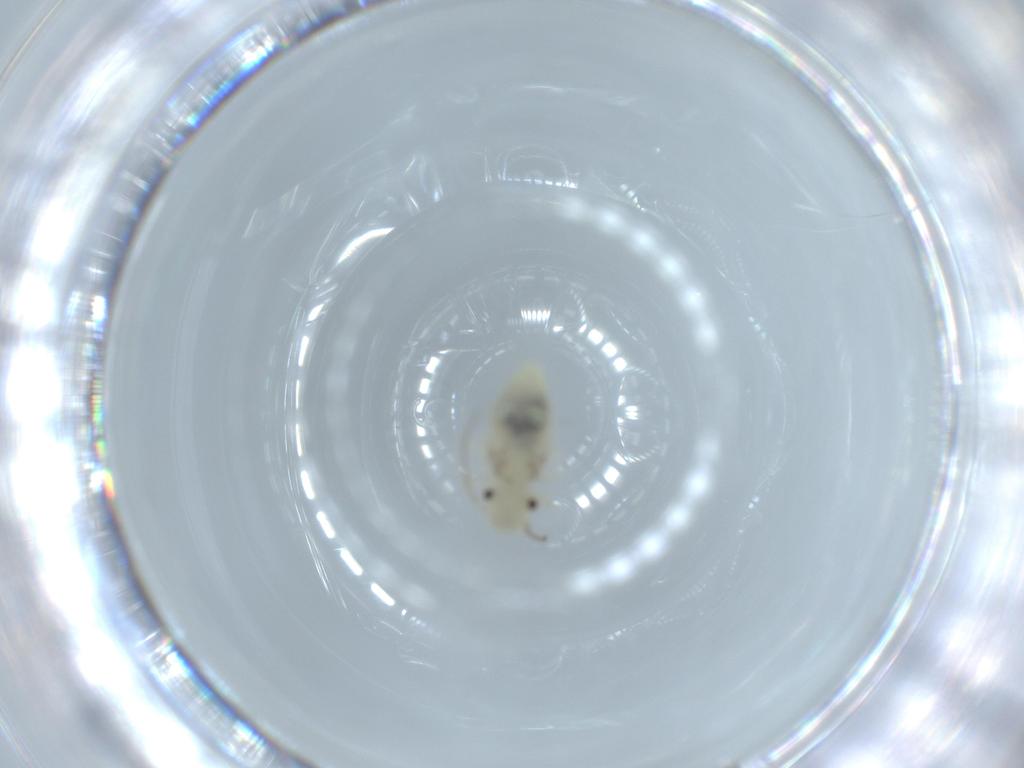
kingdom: Animalia
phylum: Arthropoda
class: Insecta
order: Psocodea
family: Caeciliusidae
